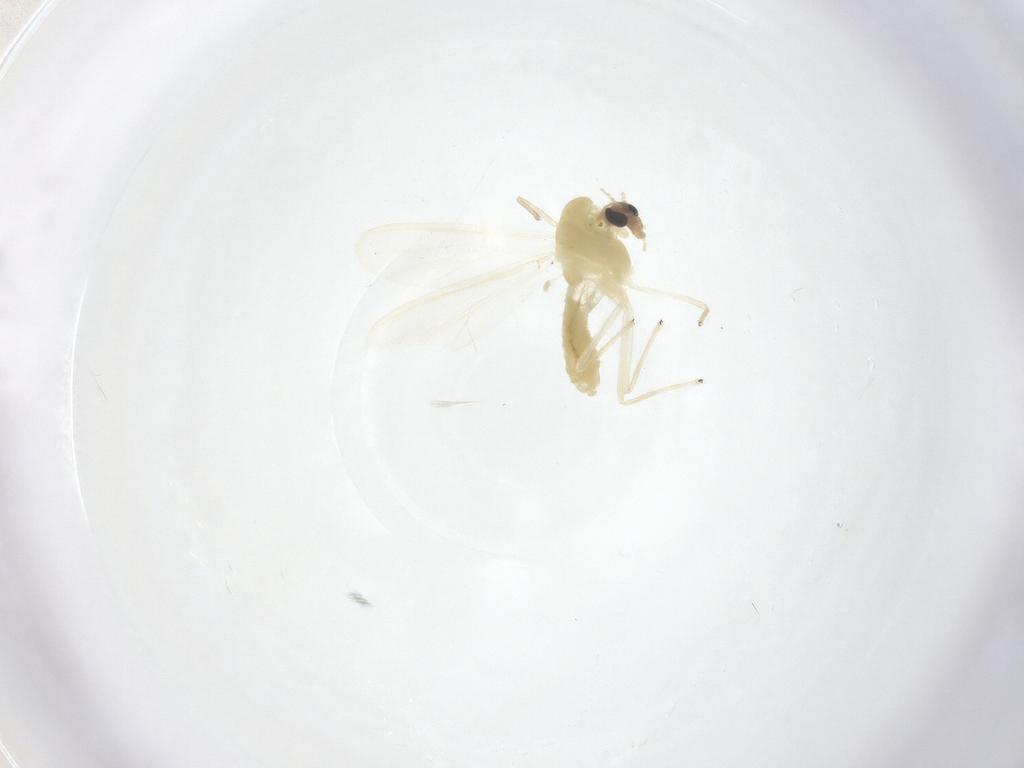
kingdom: Animalia
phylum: Arthropoda
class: Insecta
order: Diptera
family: Chironomidae
